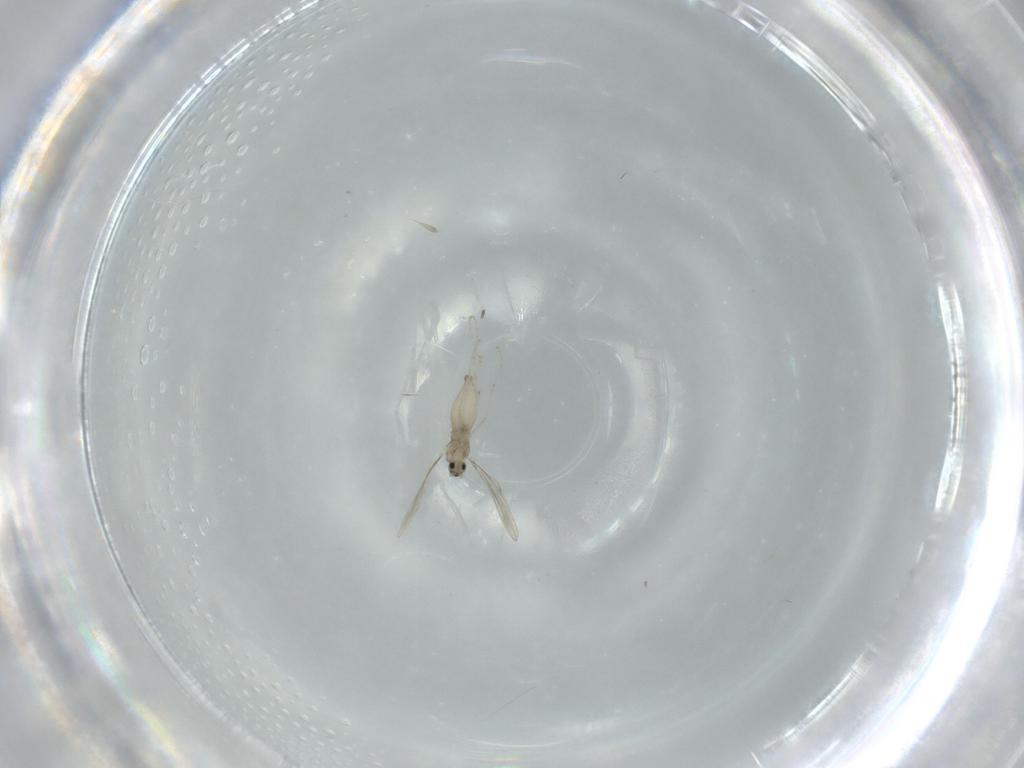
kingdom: Animalia
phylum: Arthropoda
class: Insecta
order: Diptera
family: Cecidomyiidae
